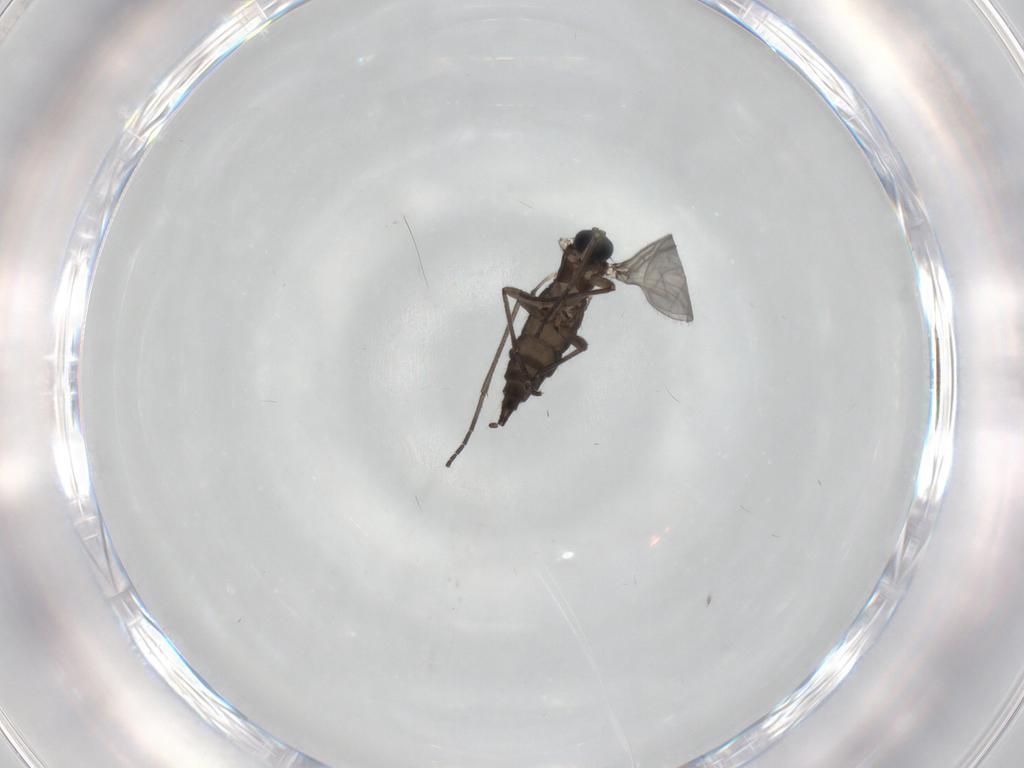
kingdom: Animalia
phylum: Arthropoda
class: Insecta
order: Diptera
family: Sciaridae
